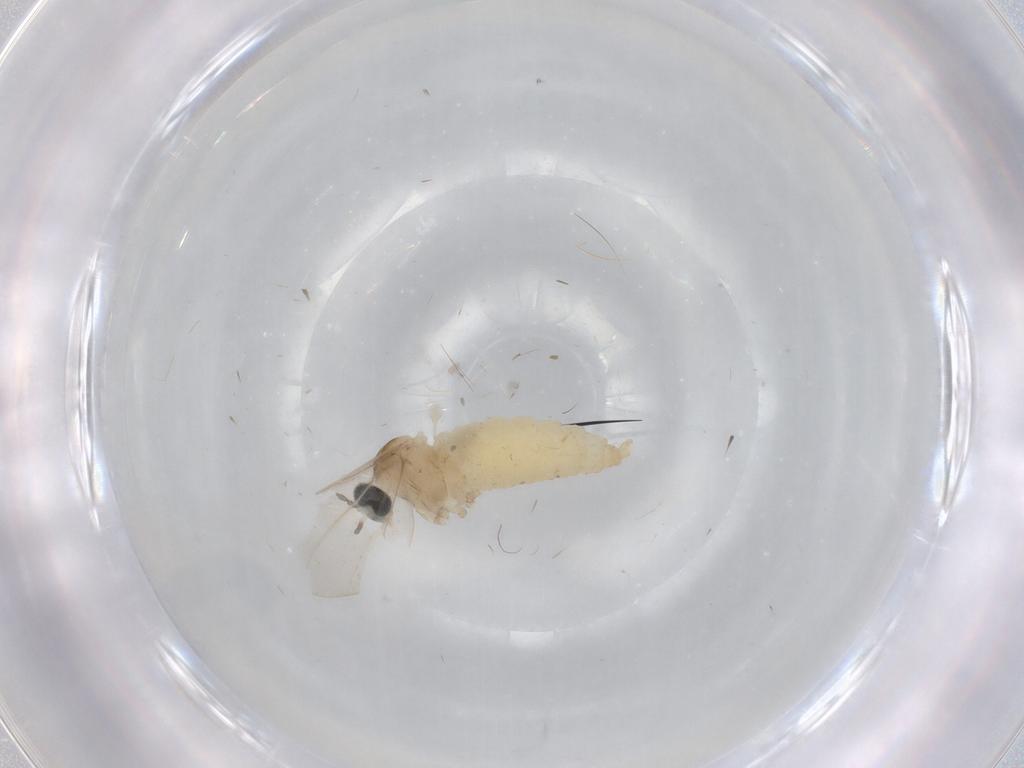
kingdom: Animalia
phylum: Arthropoda
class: Insecta
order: Diptera
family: Cecidomyiidae
